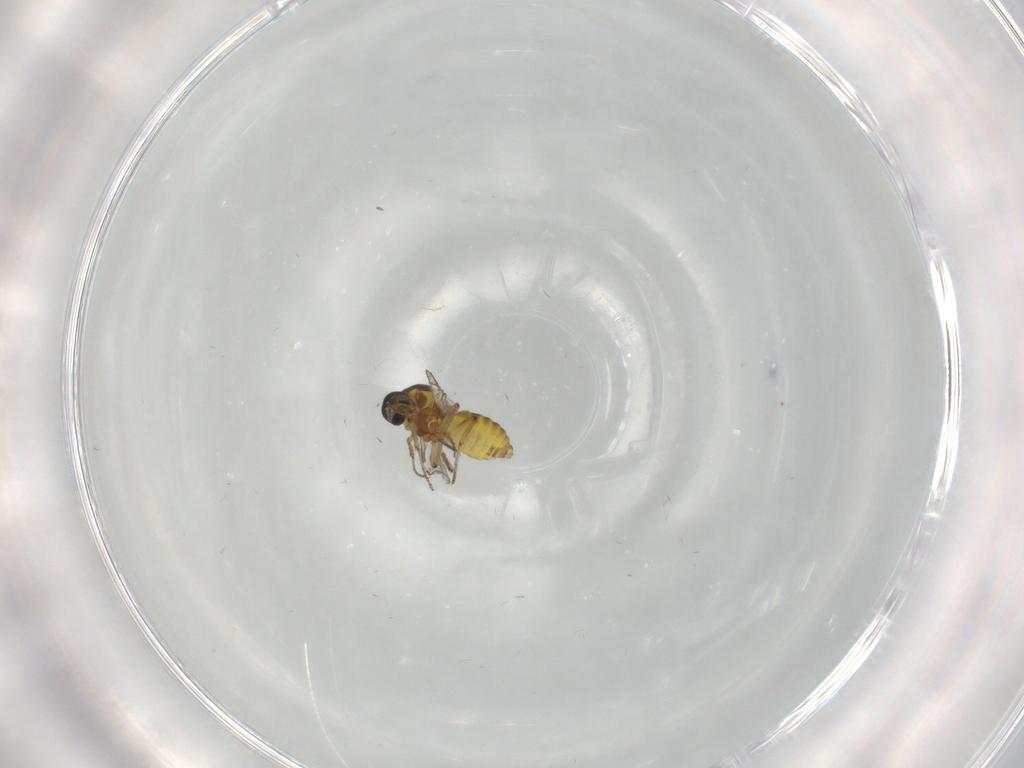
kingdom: Animalia
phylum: Arthropoda
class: Insecta
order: Diptera
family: Ceratopogonidae
